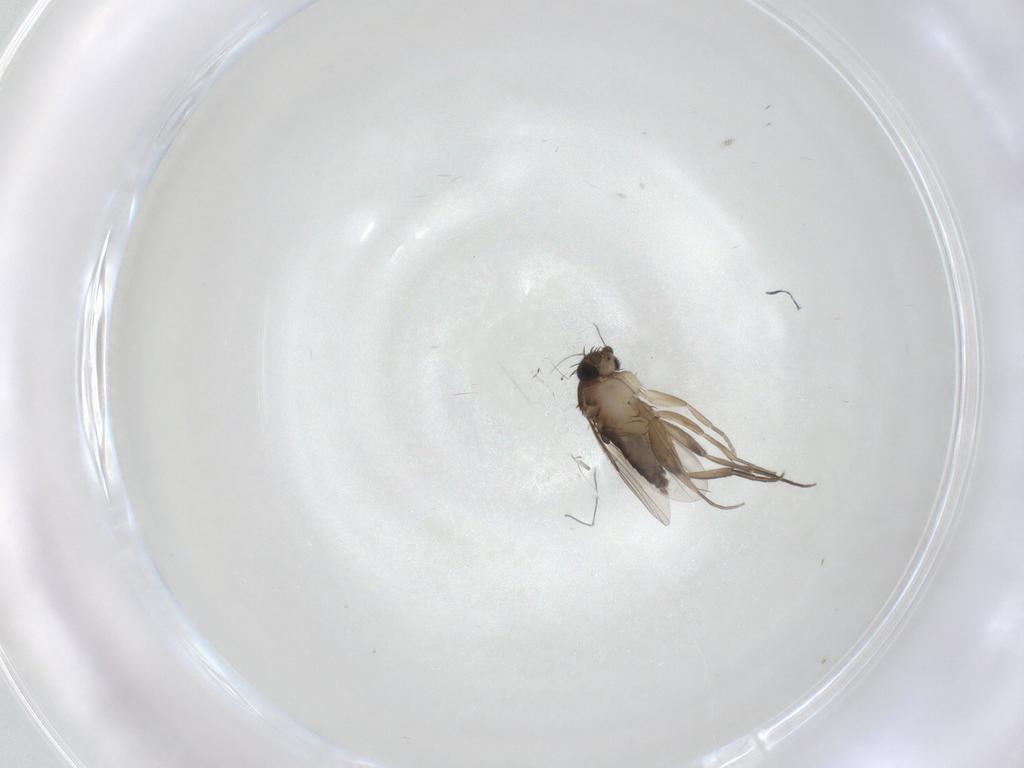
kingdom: Animalia
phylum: Arthropoda
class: Insecta
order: Diptera
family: Phoridae
